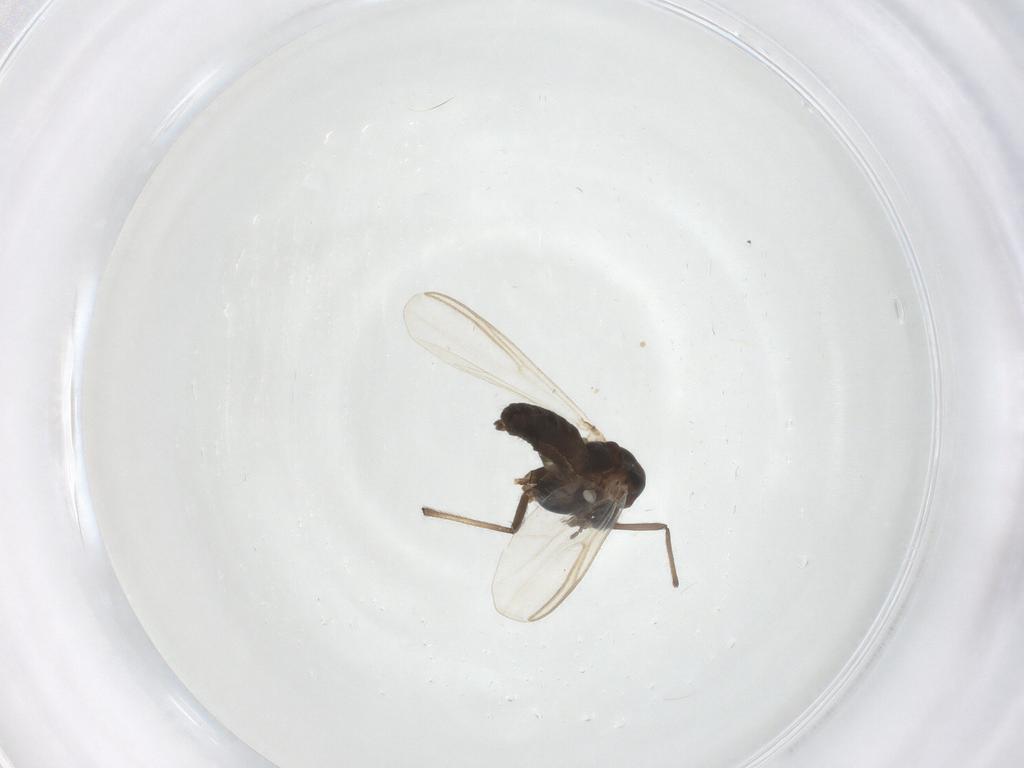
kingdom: Animalia
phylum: Arthropoda
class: Insecta
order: Diptera
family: Chironomidae
